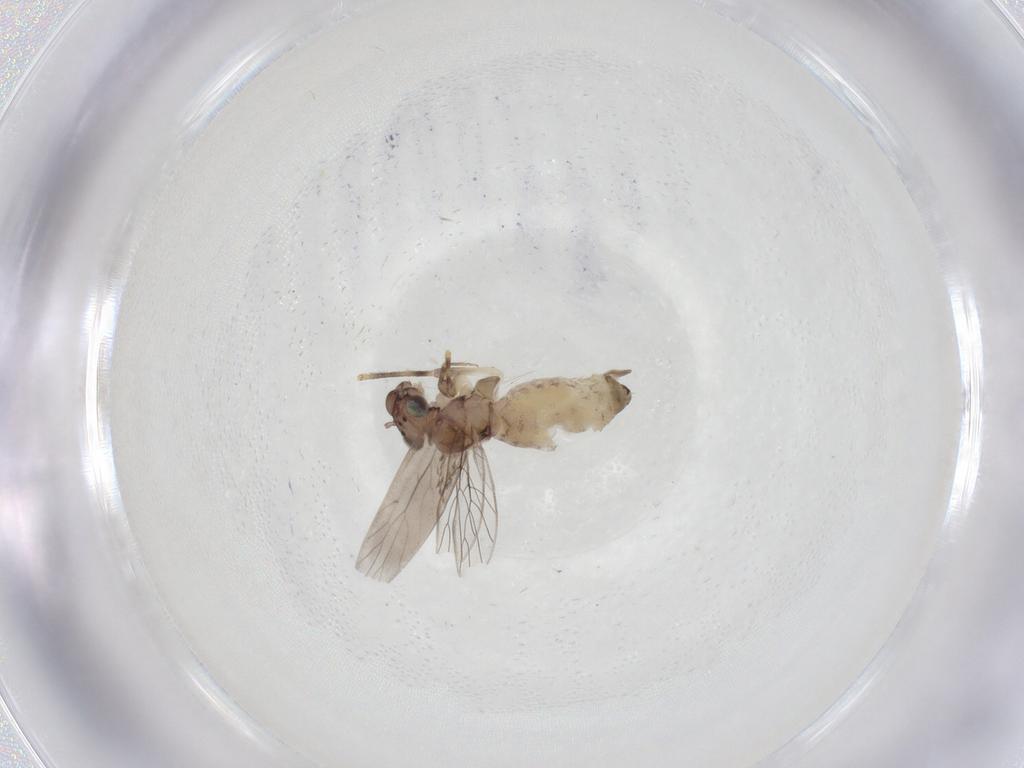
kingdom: Animalia
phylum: Arthropoda
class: Insecta
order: Psocodea
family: Lepidopsocidae
